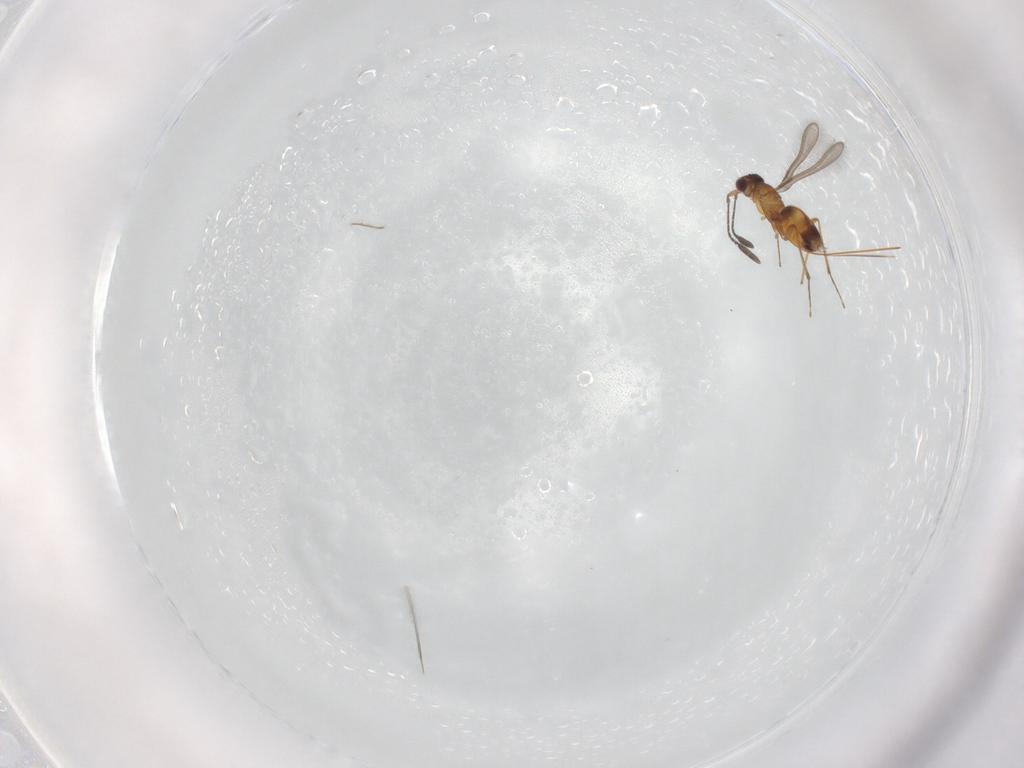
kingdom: Animalia
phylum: Arthropoda
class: Insecta
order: Hymenoptera
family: Mymaridae
